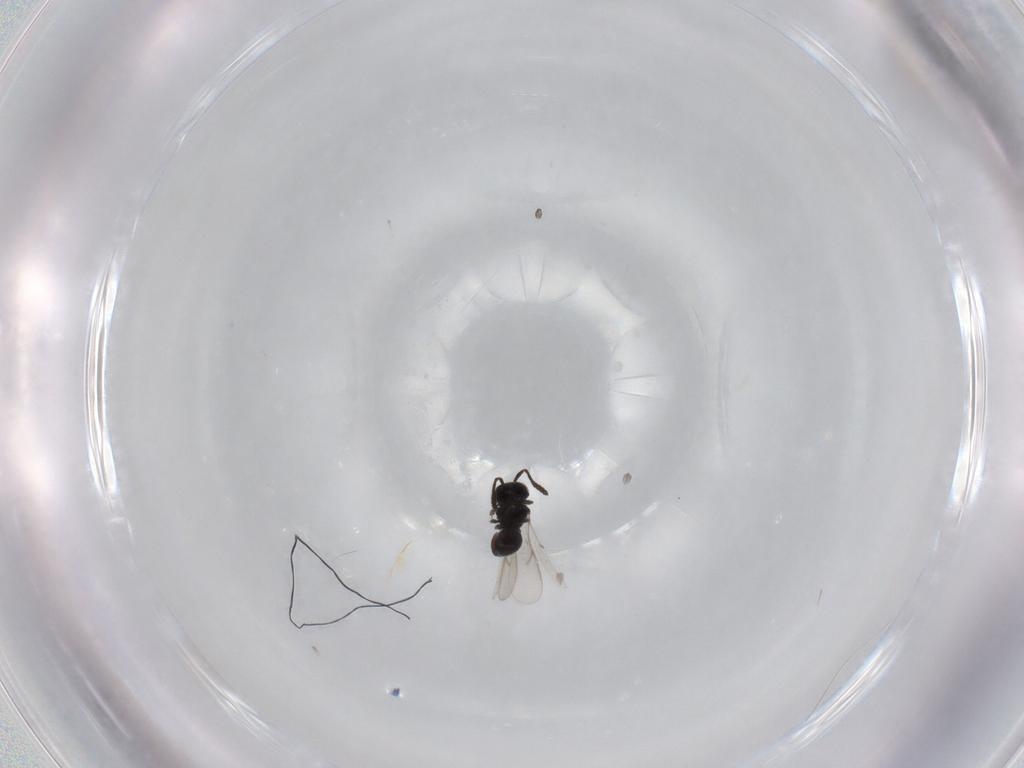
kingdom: Animalia
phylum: Arthropoda
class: Insecta
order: Hymenoptera
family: Scelionidae
